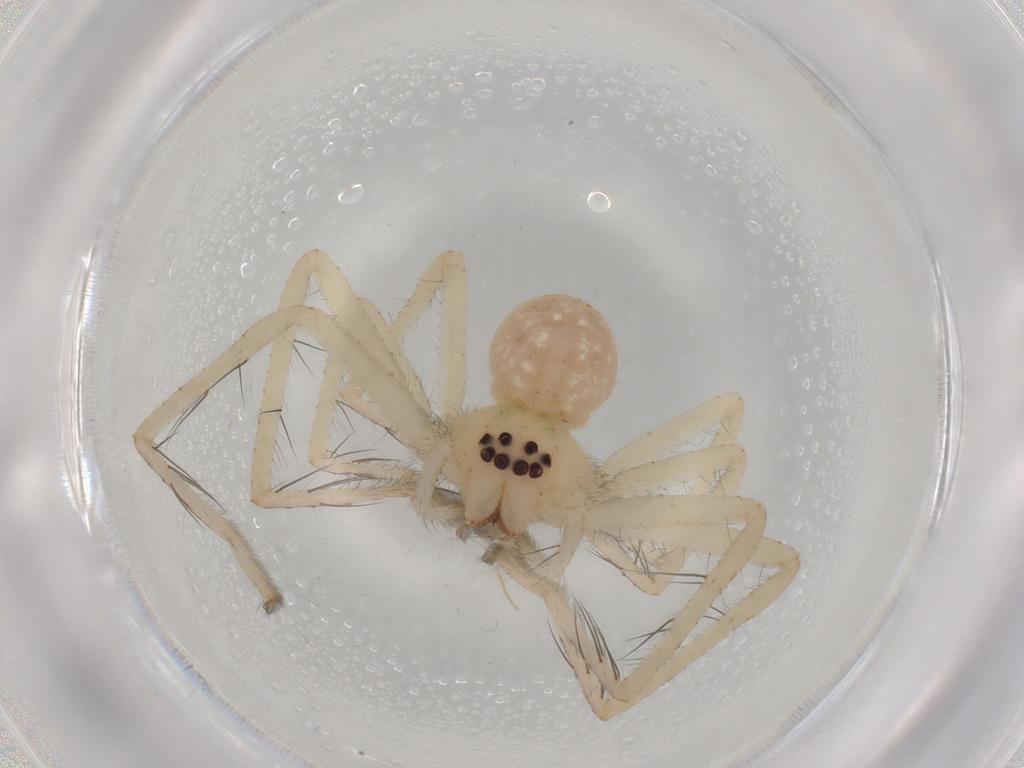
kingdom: Animalia
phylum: Arthropoda
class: Arachnida
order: Araneae
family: Sparassidae
